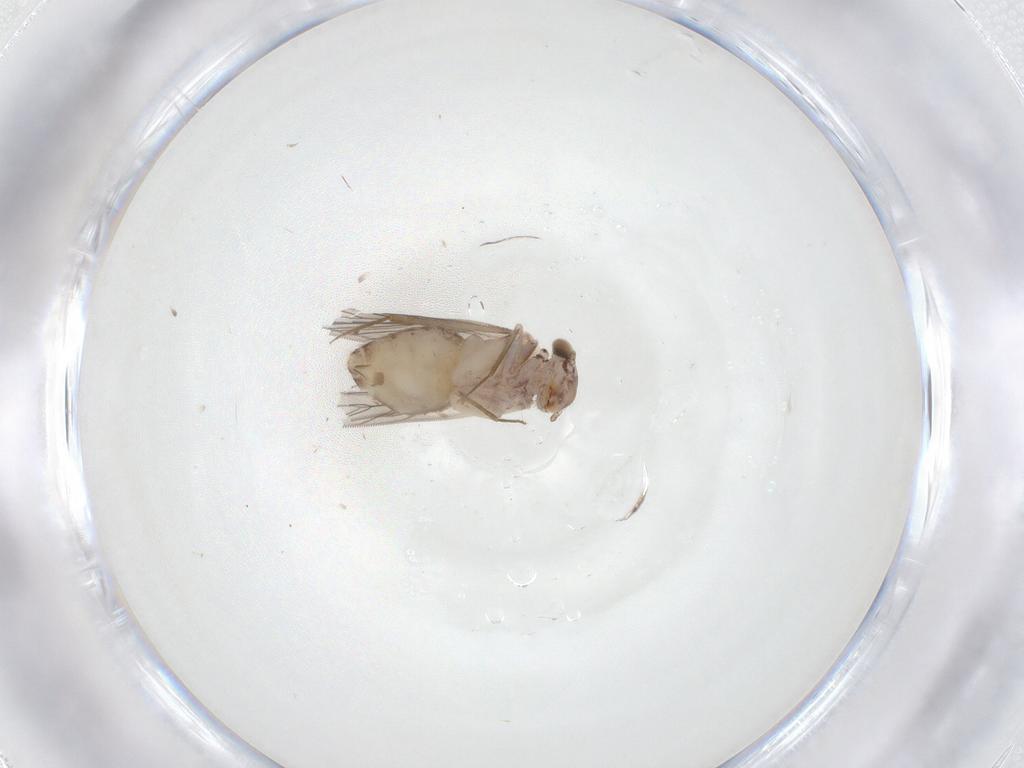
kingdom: Animalia
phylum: Arthropoda
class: Insecta
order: Psocodea
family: Lepidopsocidae
